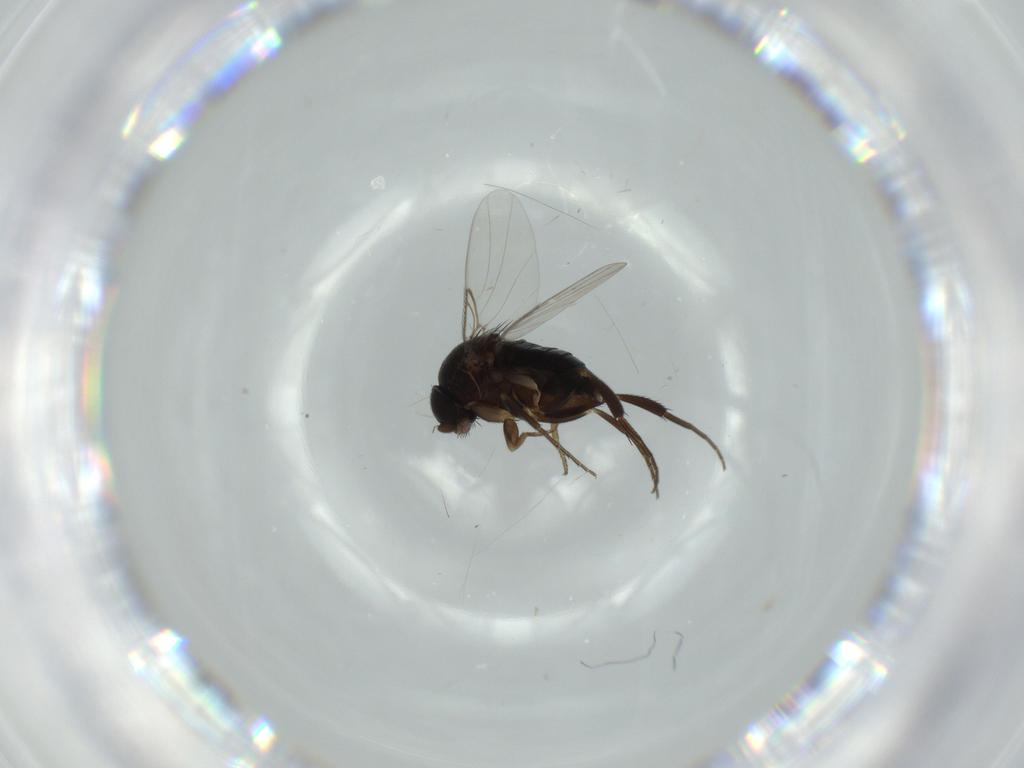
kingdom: Animalia
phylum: Arthropoda
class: Insecta
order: Diptera
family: Phoridae
